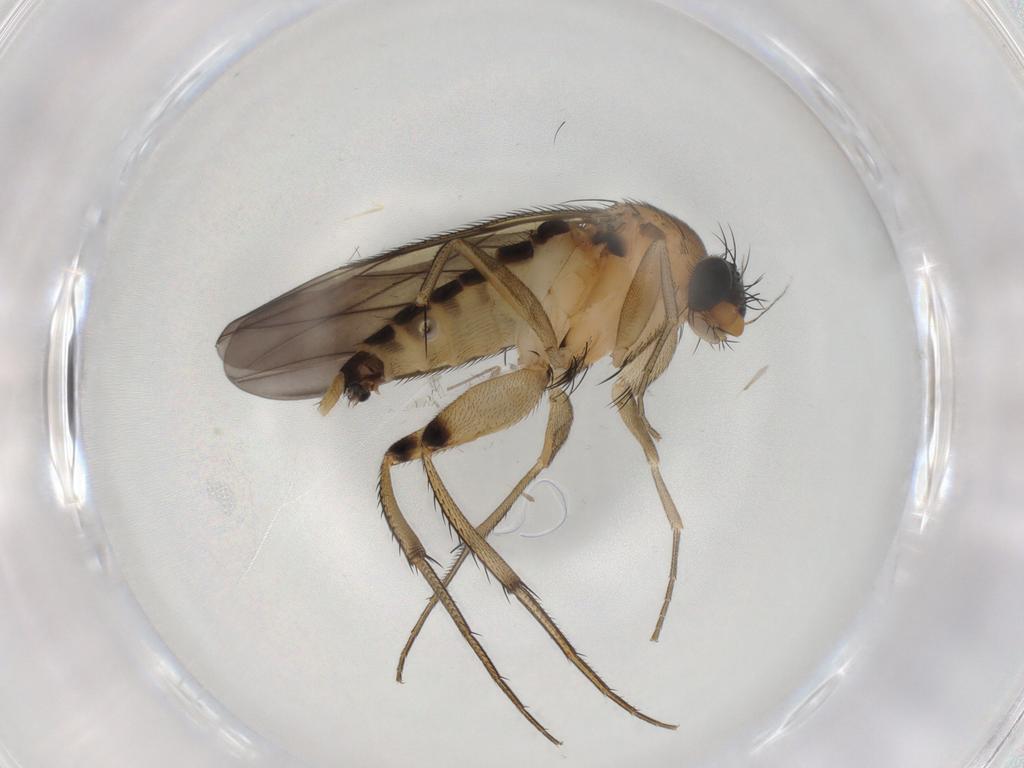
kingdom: Animalia
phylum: Arthropoda
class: Insecta
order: Diptera
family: Phoridae
